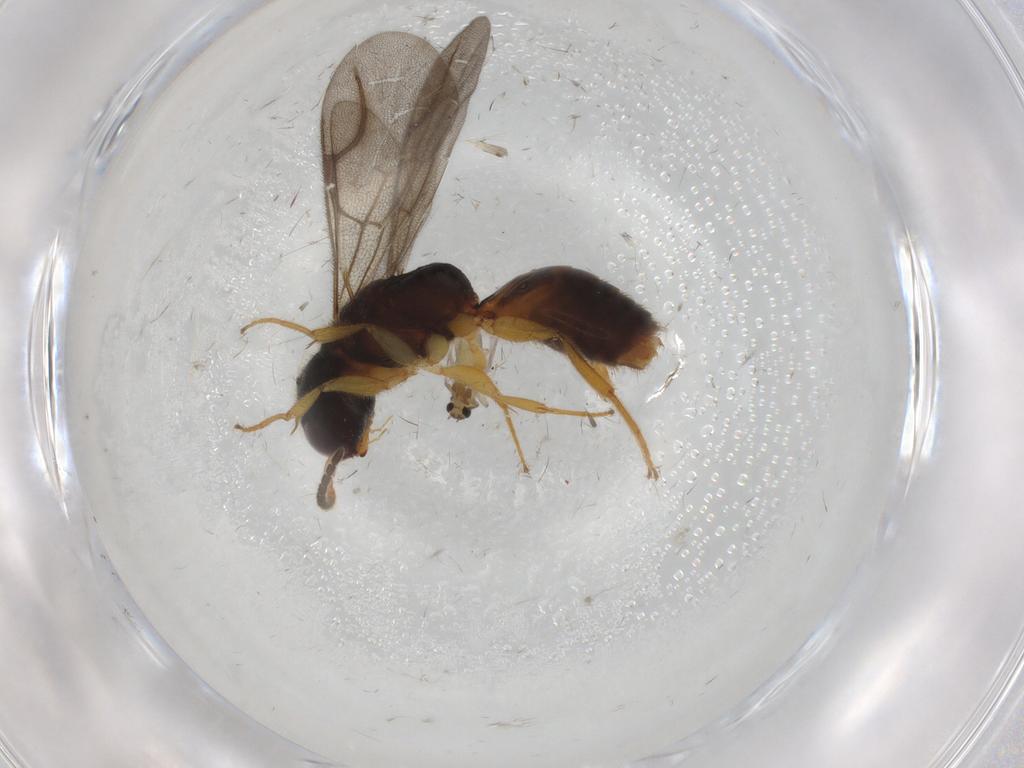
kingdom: Animalia
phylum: Arthropoda
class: Insecta
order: Hymenoptera
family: Bethylidae
